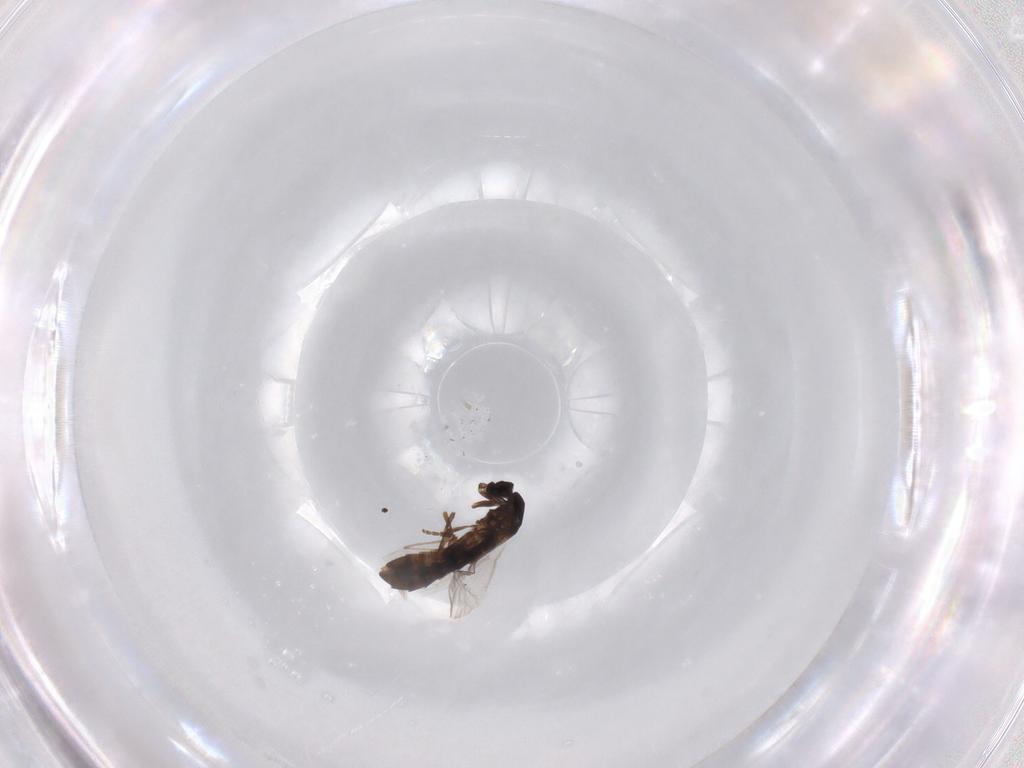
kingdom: Animalia
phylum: Arthropoda
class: Insecta
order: Diptera
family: Scatopsidae
